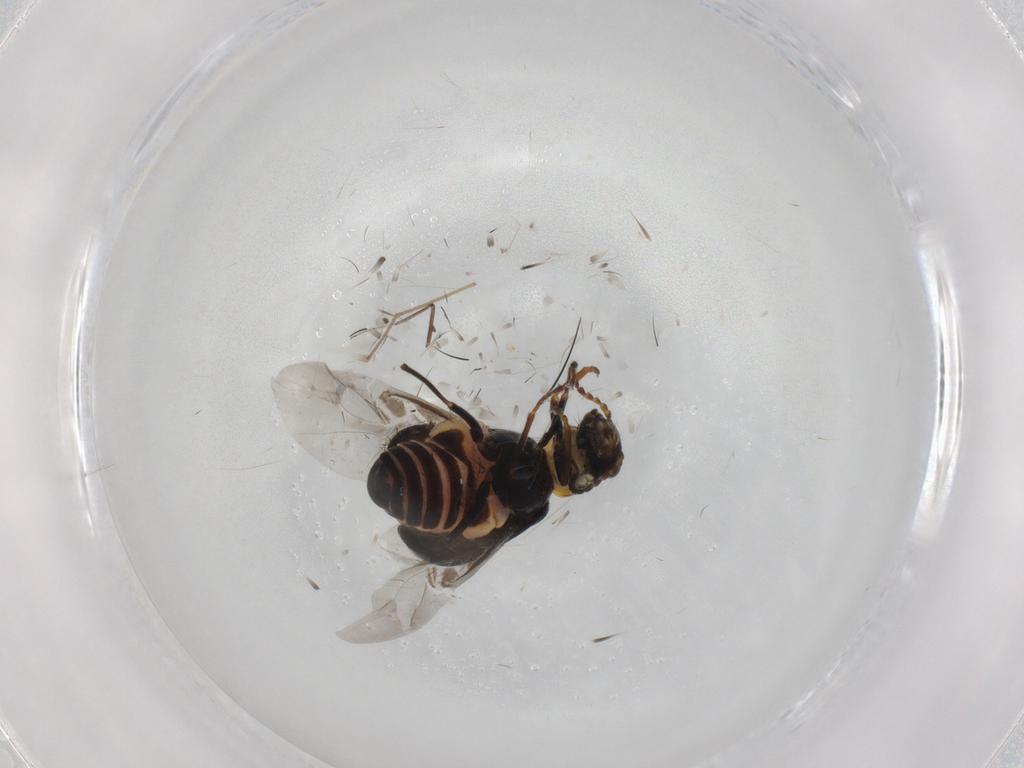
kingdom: Animalia
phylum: Arthropoda
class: Insecta
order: Coleoptera
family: Melyridae
